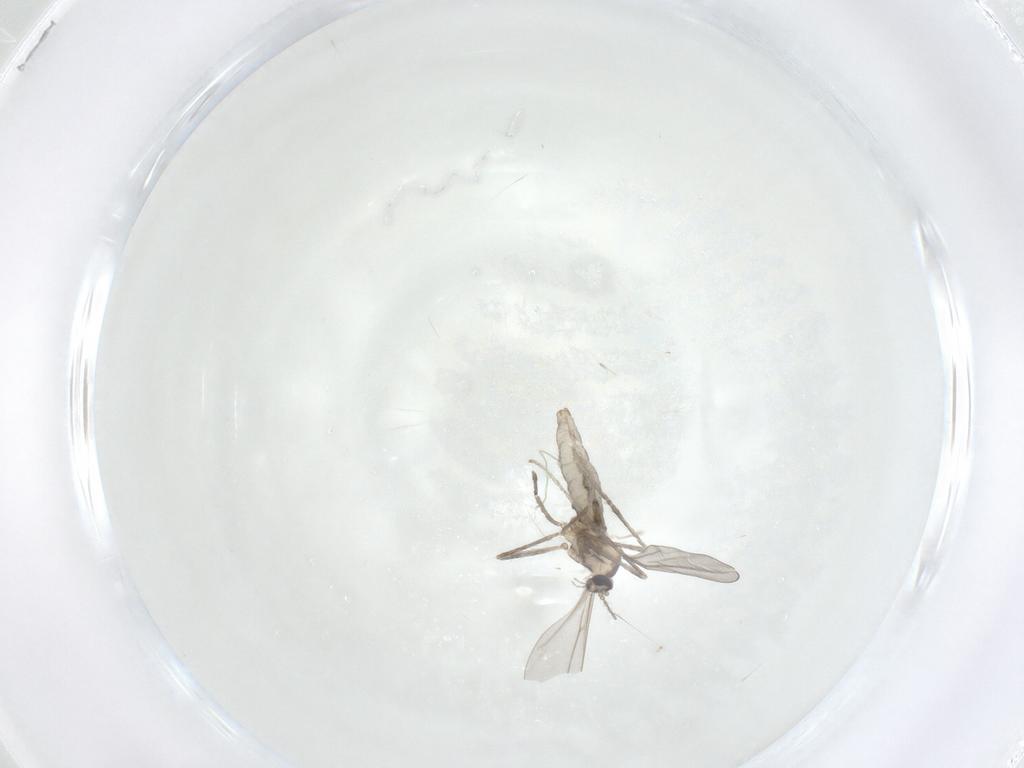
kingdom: Animalia
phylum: Arthropoda
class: Insecta
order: Diptera
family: Cecidomyiidae
